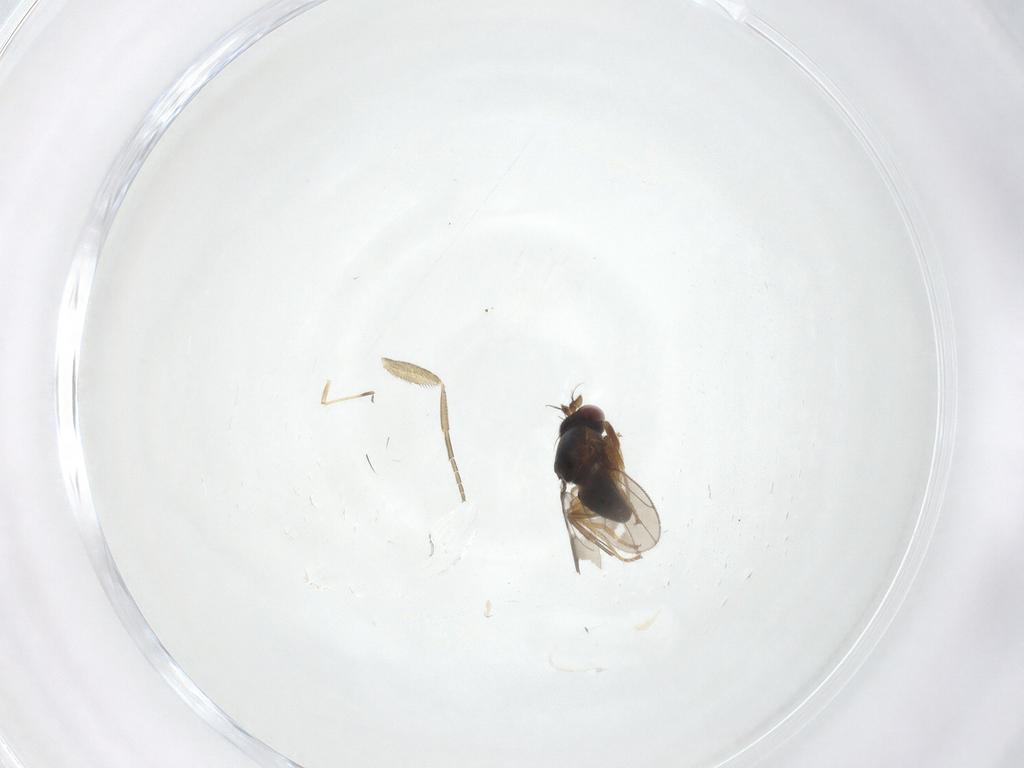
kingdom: Animalia
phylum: Arthropoda
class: Insecta
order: Diptera
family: Ephydridae
